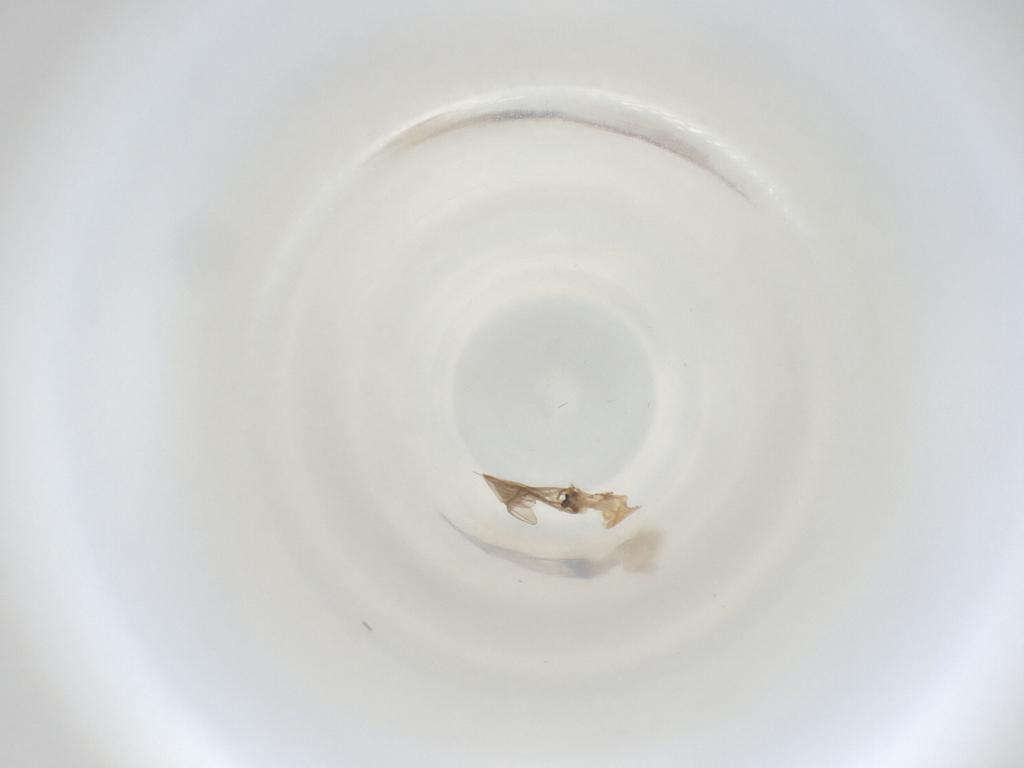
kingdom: Animalia
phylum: Arthropoda
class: Insecta
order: Diptera
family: Cecidomyiidae
